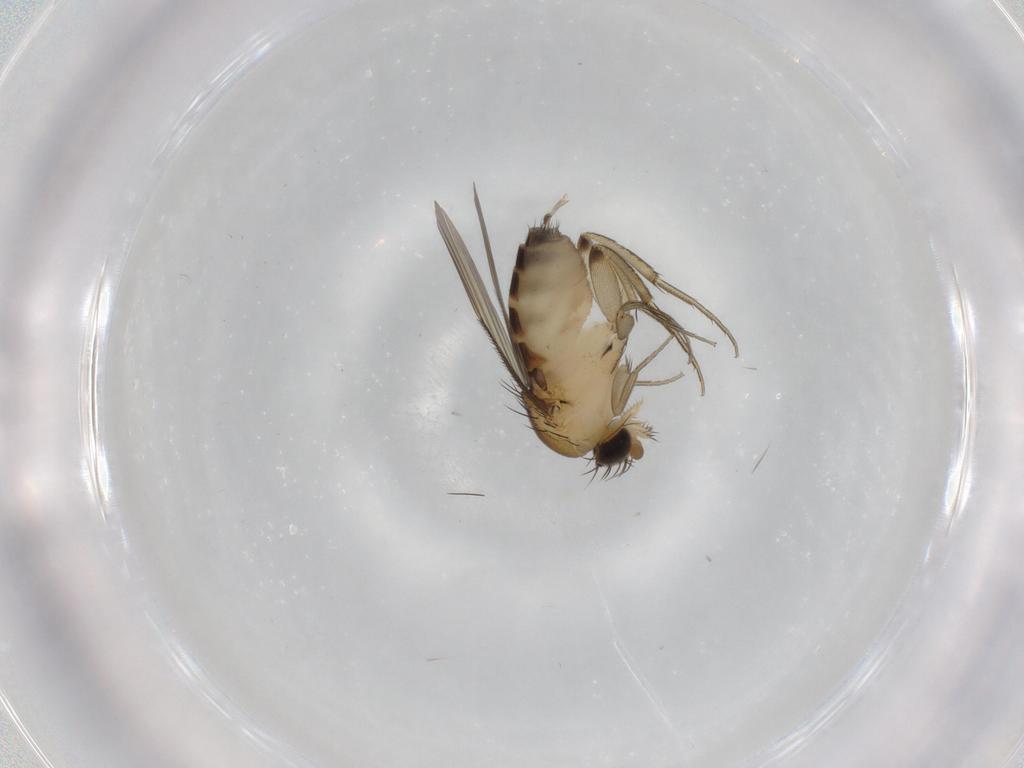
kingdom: Animalia
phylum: Arthropoda
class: Insecta
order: Diptera
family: Phoridae
